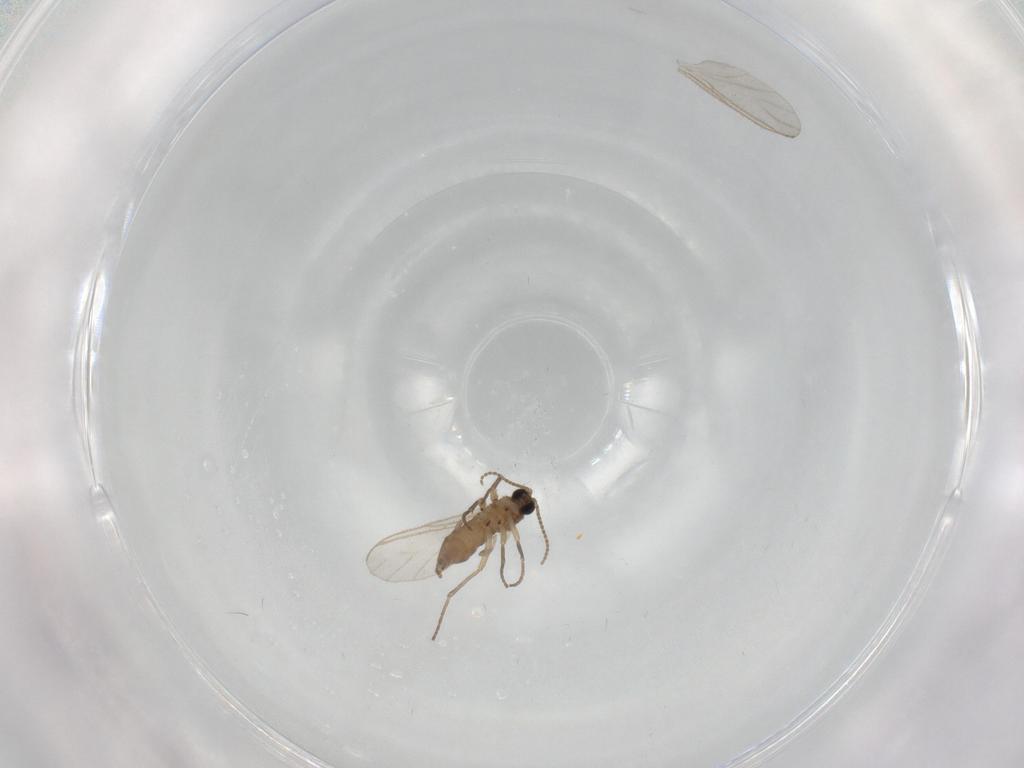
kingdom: Animalia
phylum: Arthropoda
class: Insecta
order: Diptera
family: Sciaridae
